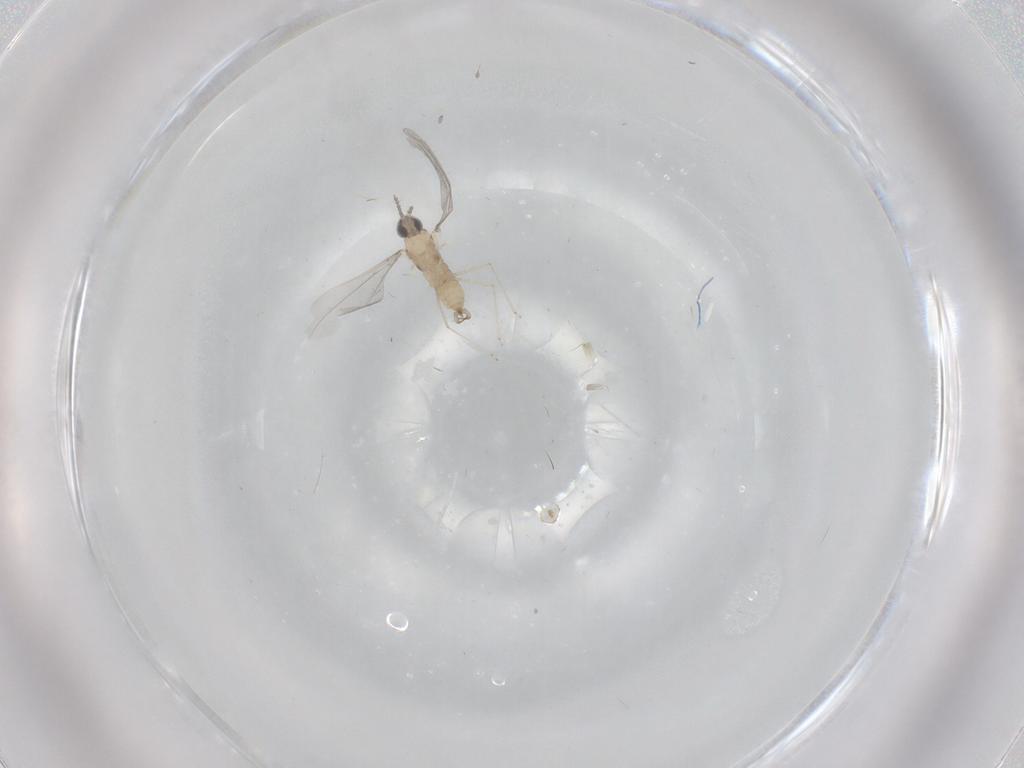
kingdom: Animalia
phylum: Arthropoda
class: Insecta
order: Diptera
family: Cecidomyiidae
